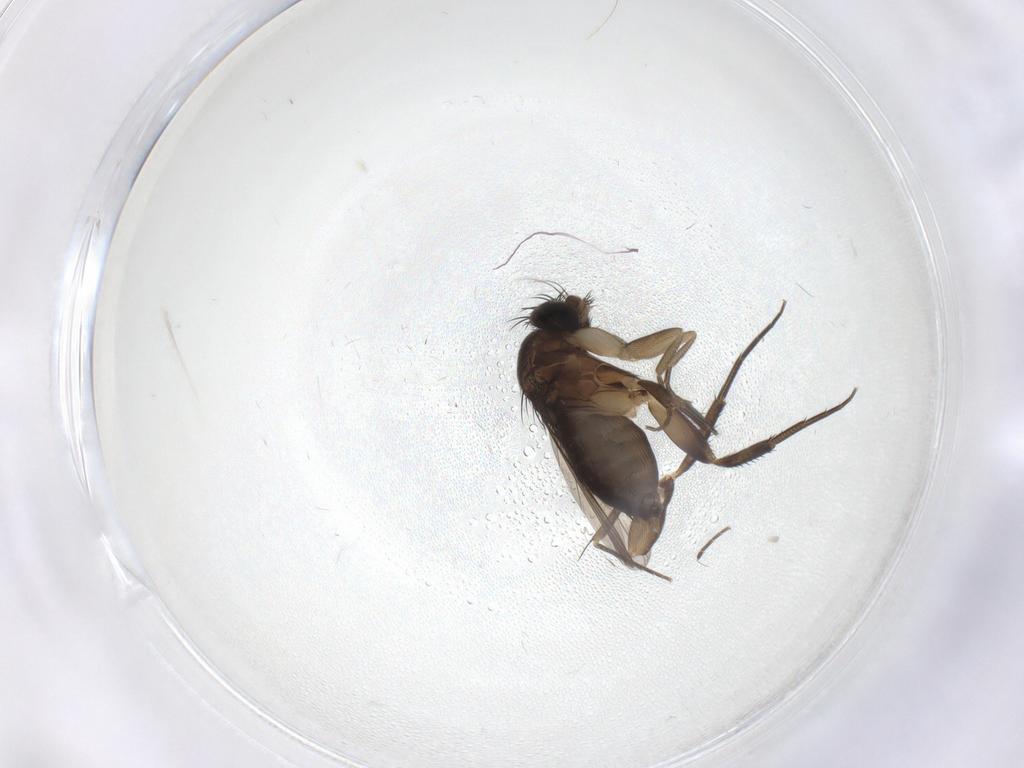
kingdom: Animalia
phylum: Arthropoda
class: Insecta
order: Diptera
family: Phoridae
